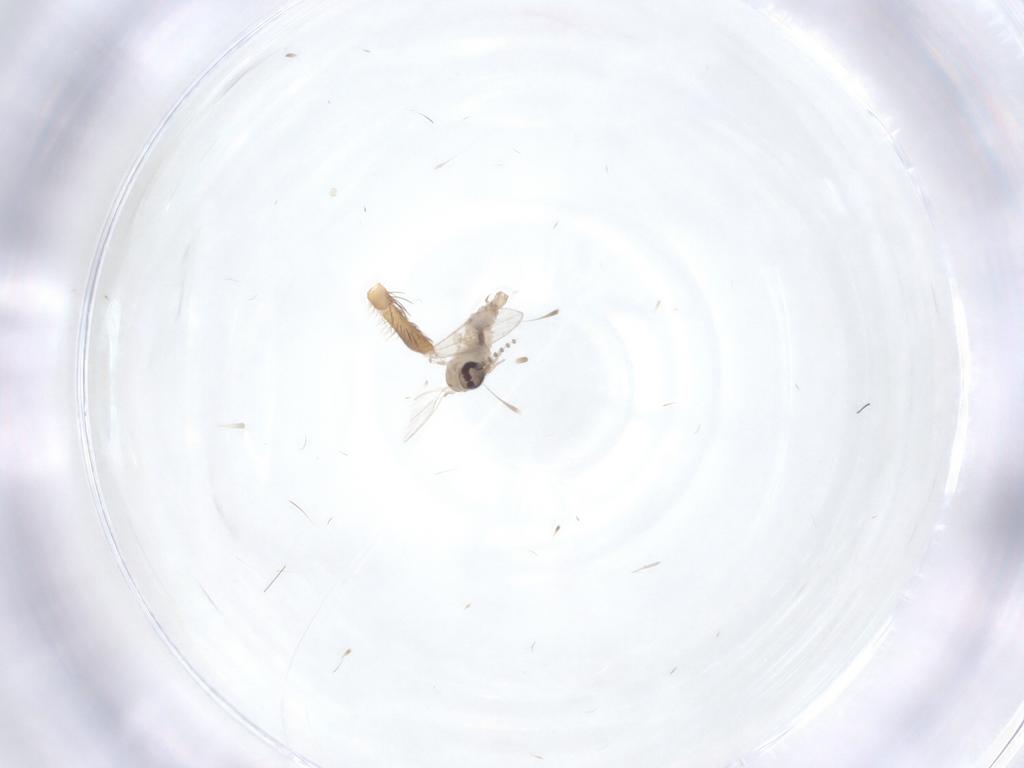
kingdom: Animalia
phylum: Arthropoda
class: Insecta
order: Diptera
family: Psychodidae
